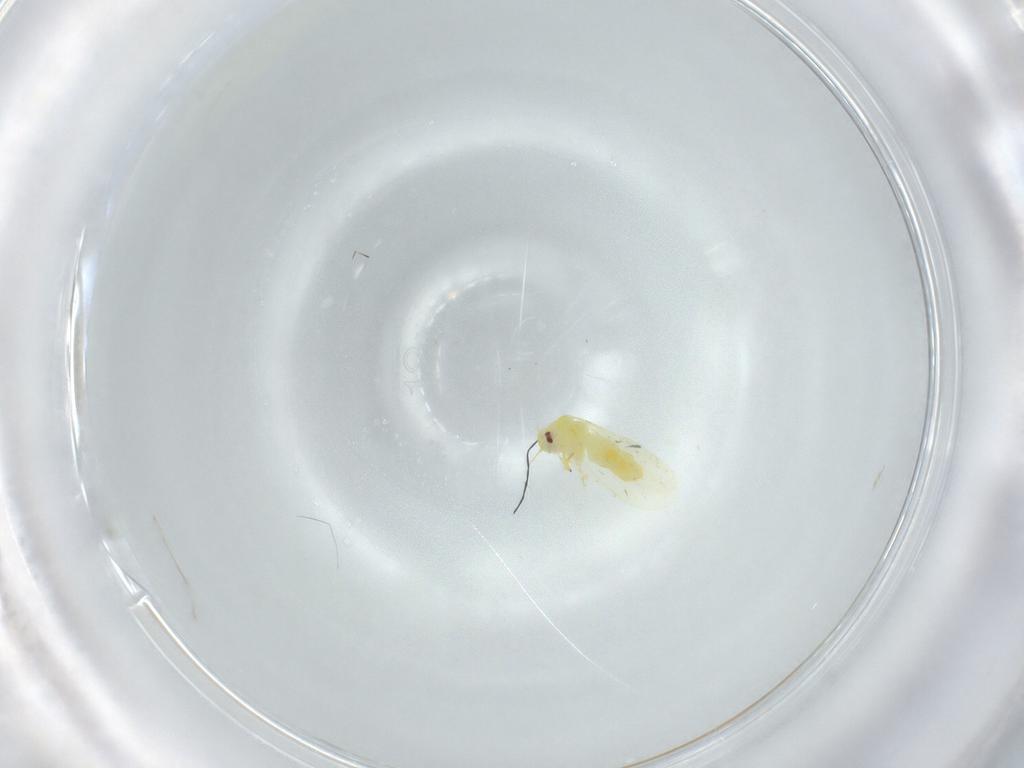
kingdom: Animalia
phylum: Arthropoda
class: Insecta
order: Hemiptera
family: Aleyrodidae
